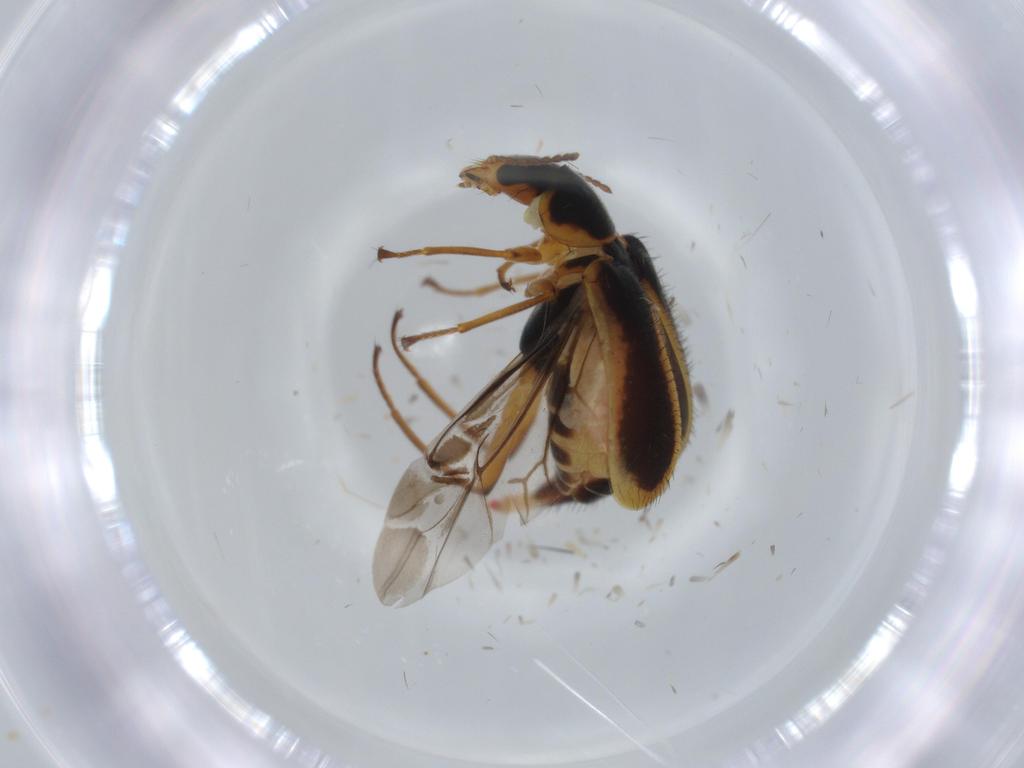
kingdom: Animalia
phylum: Arthropoda
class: Insecta
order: Coleoptera
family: Melyridae
